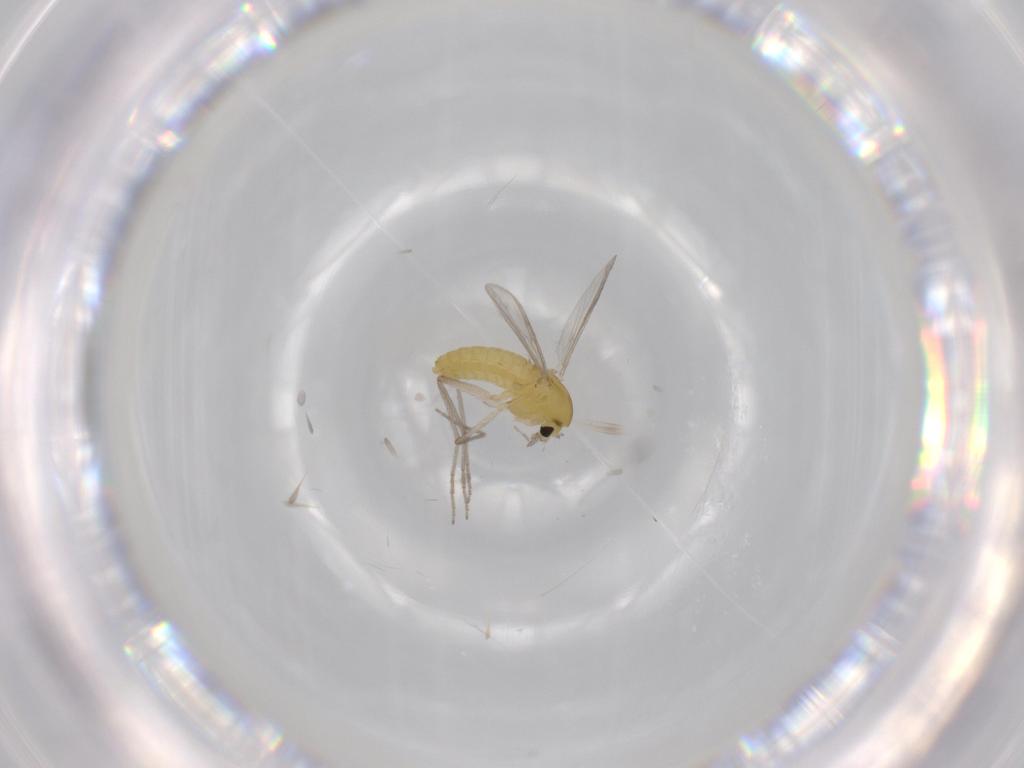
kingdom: Animalia
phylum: Arthropoda
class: Insecta
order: Diptera
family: Chironomidae
